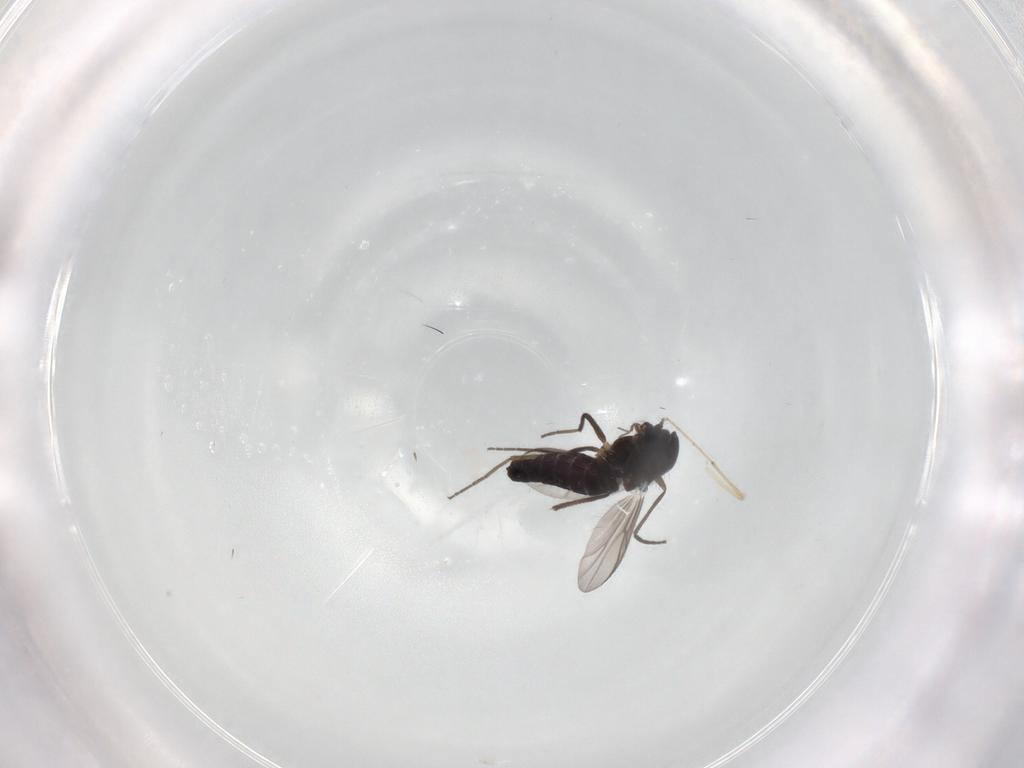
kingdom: Animalia
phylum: Arthropoda
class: Insecta
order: Diptera
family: Chironomidae
